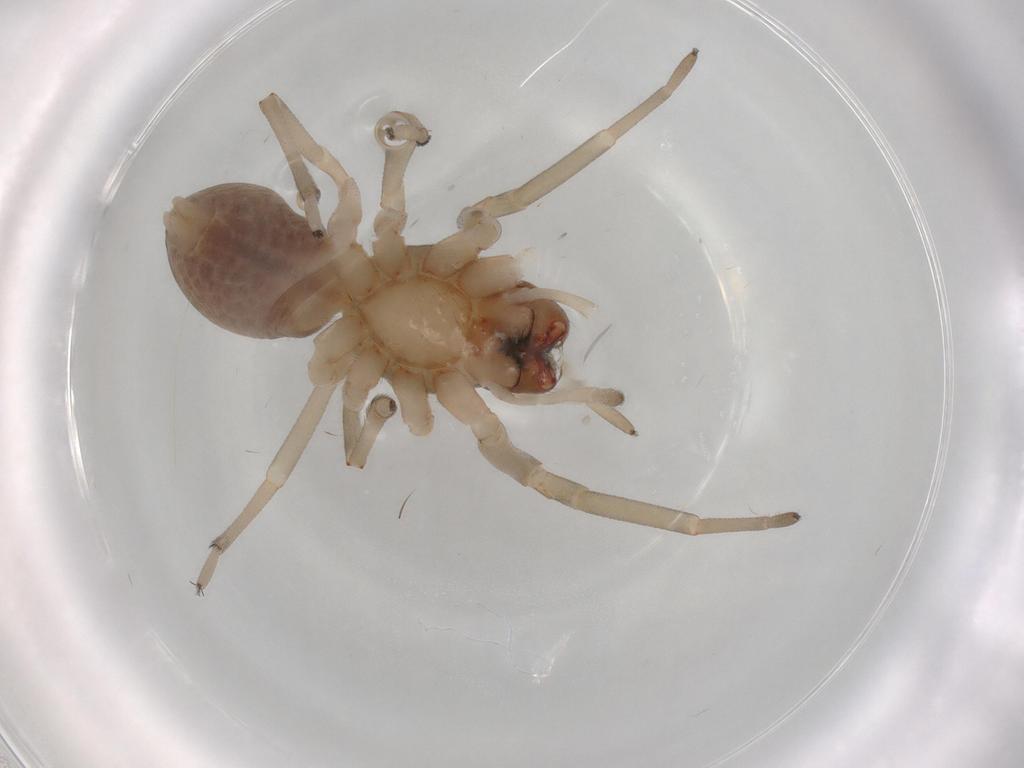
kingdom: Animalia
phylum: Arthropoda
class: Arachnida
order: Araneae
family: Trachelidae
